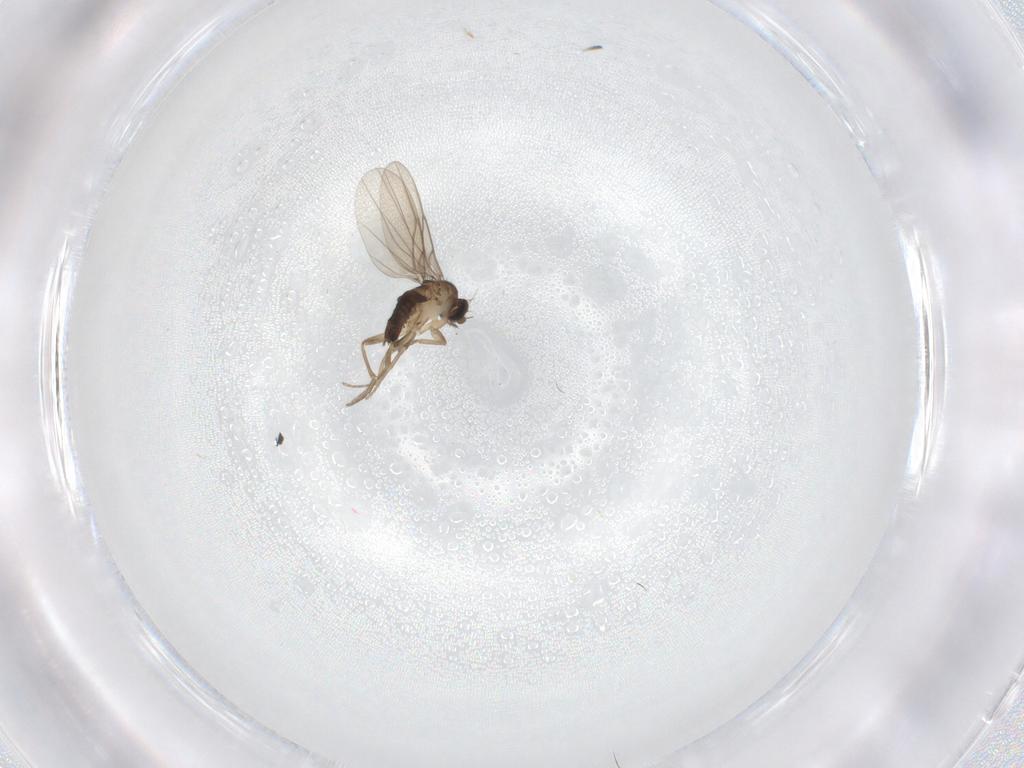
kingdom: Animalia
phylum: Arthropoda
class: Insecta
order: Diptera
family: Phoridae
